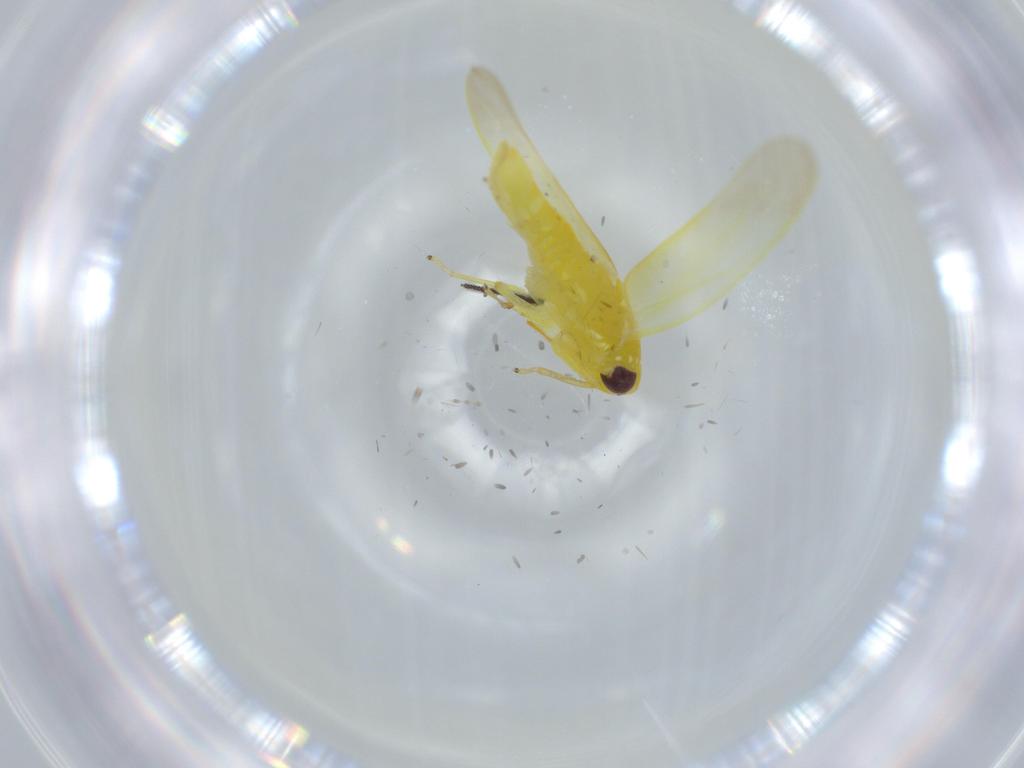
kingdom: Animalia
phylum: Arthropoda
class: Insecta
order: Hemiptera
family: Cicadellidae
